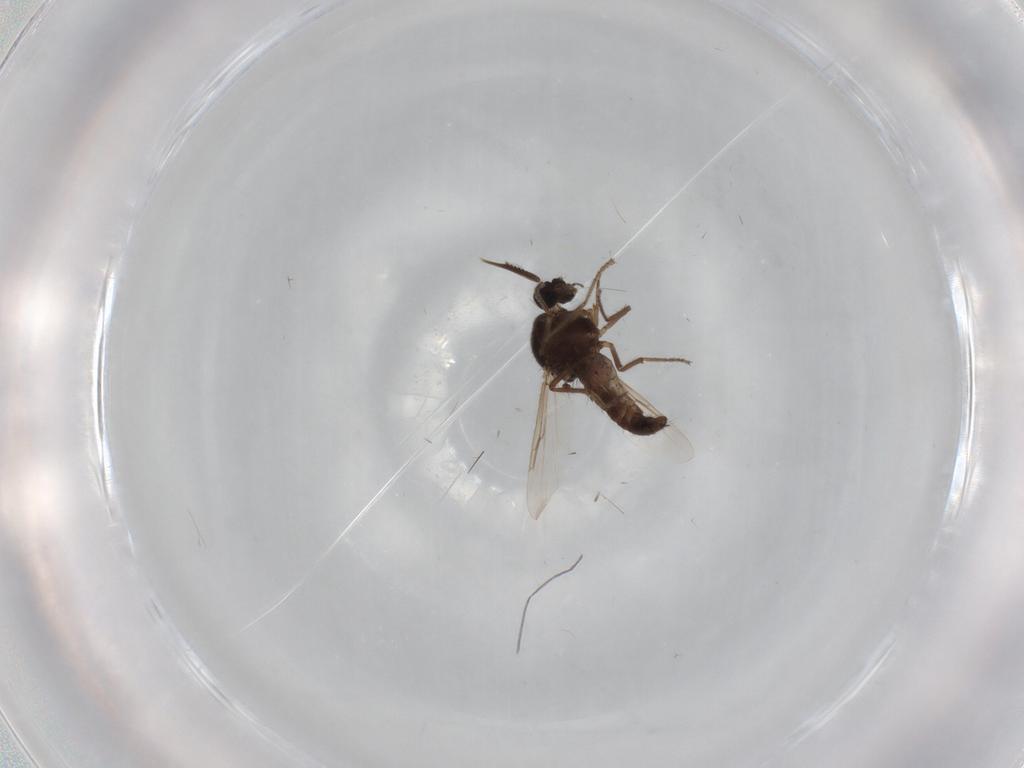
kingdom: Animalia
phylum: Arthropoda
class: Insecta
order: Diptera
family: Ceratopogonidae
